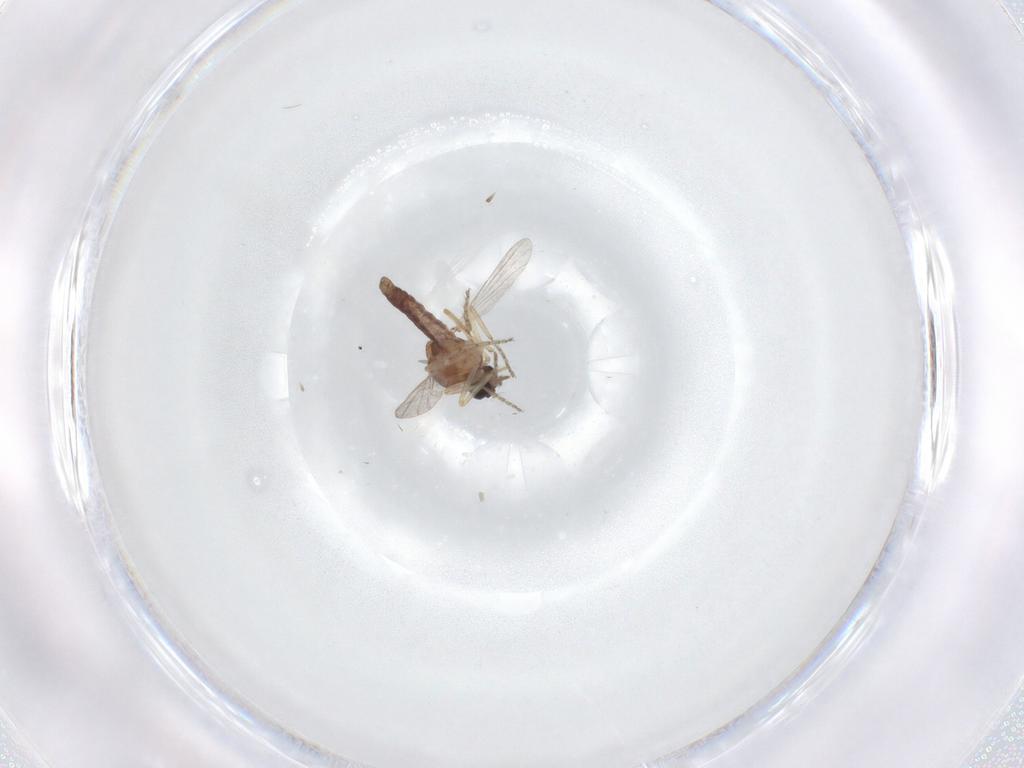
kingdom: Animalia
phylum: Arthropoda
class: Insecta
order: Diptera
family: Ceratopogonidae
